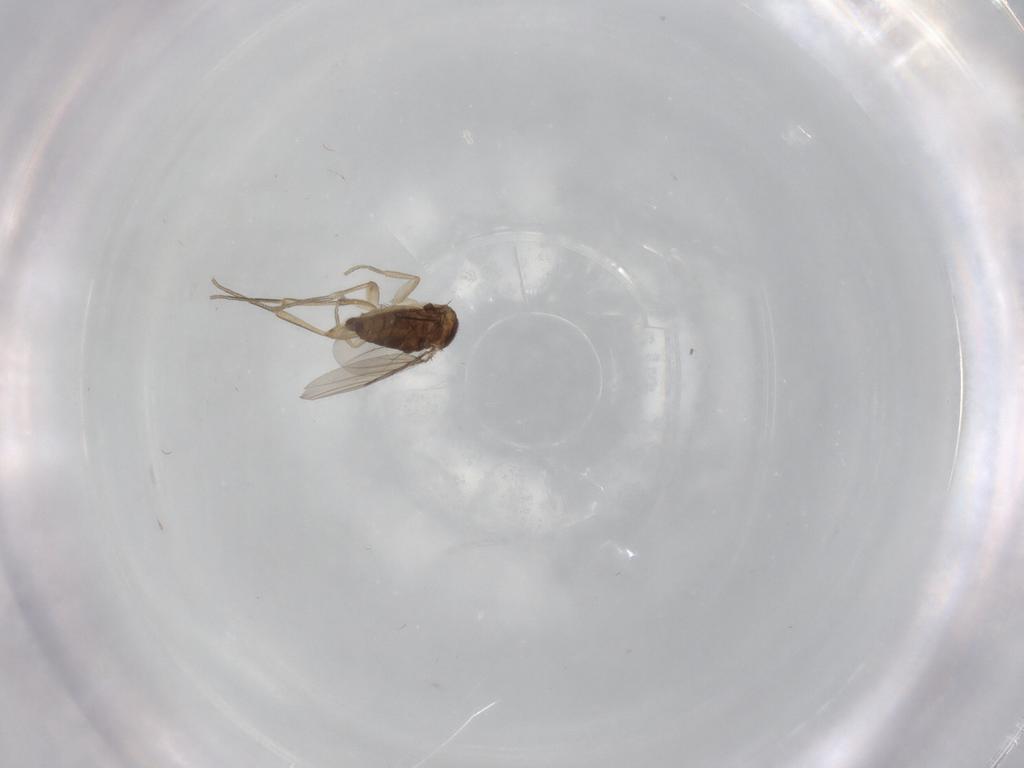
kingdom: Animalia
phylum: Arthropoda
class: Insecta
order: Diptera
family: Phoridae
